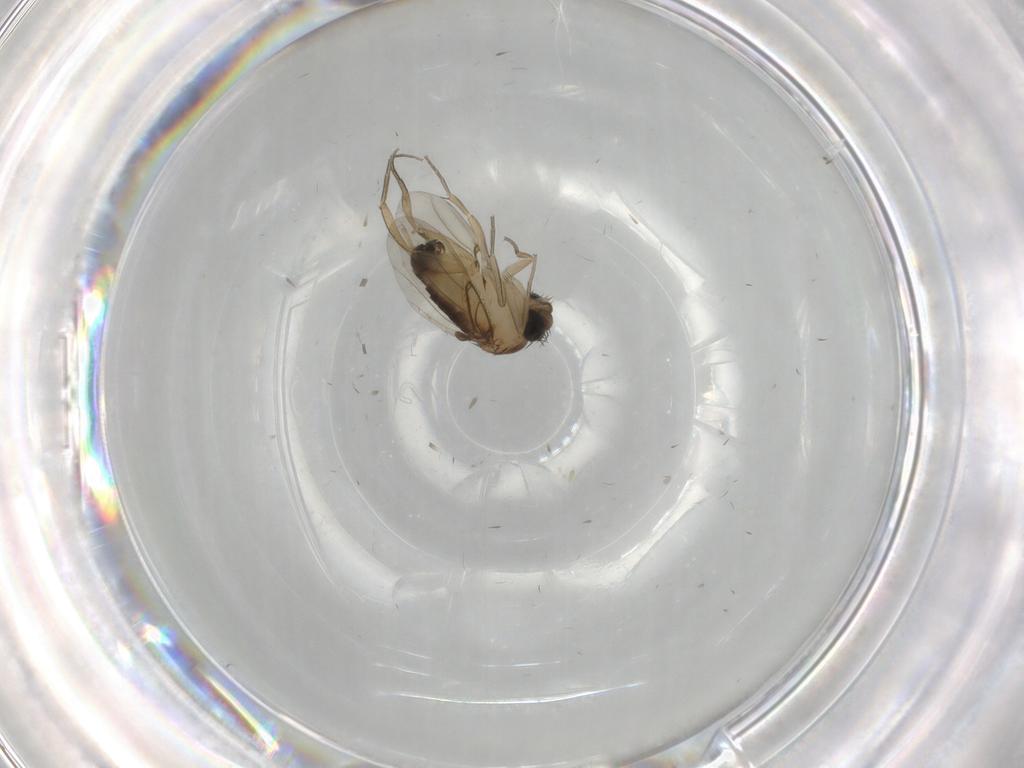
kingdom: Animalia
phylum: Arthropoda
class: Insecta
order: Diptera
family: Phoridae
